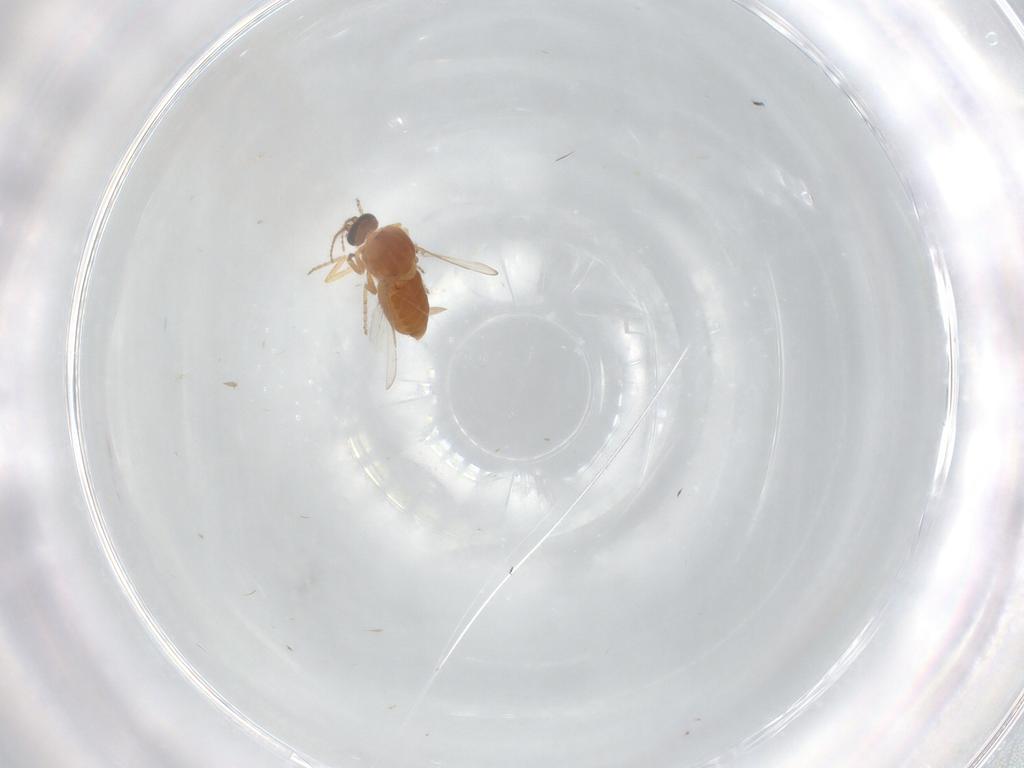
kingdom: Animalia
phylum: Arthropoda
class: Insecta
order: Diptera
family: Ceratopogonidae
